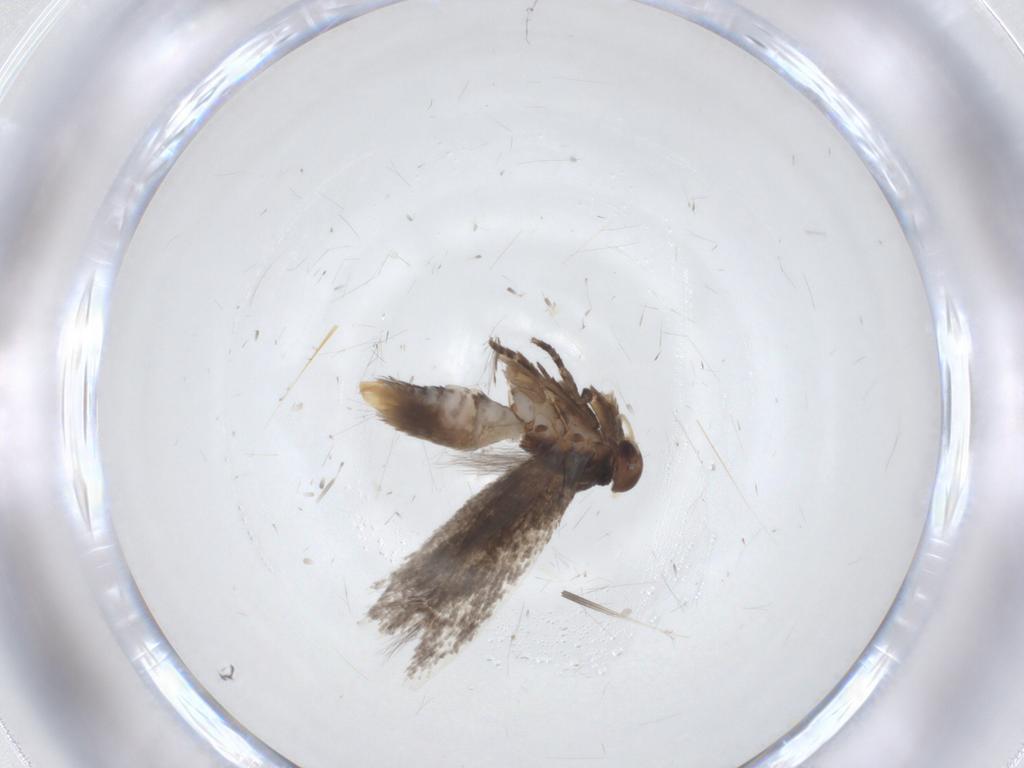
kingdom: Animalia
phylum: Arthropoda
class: Insecta
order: Lepidoptera
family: Elachistidae
